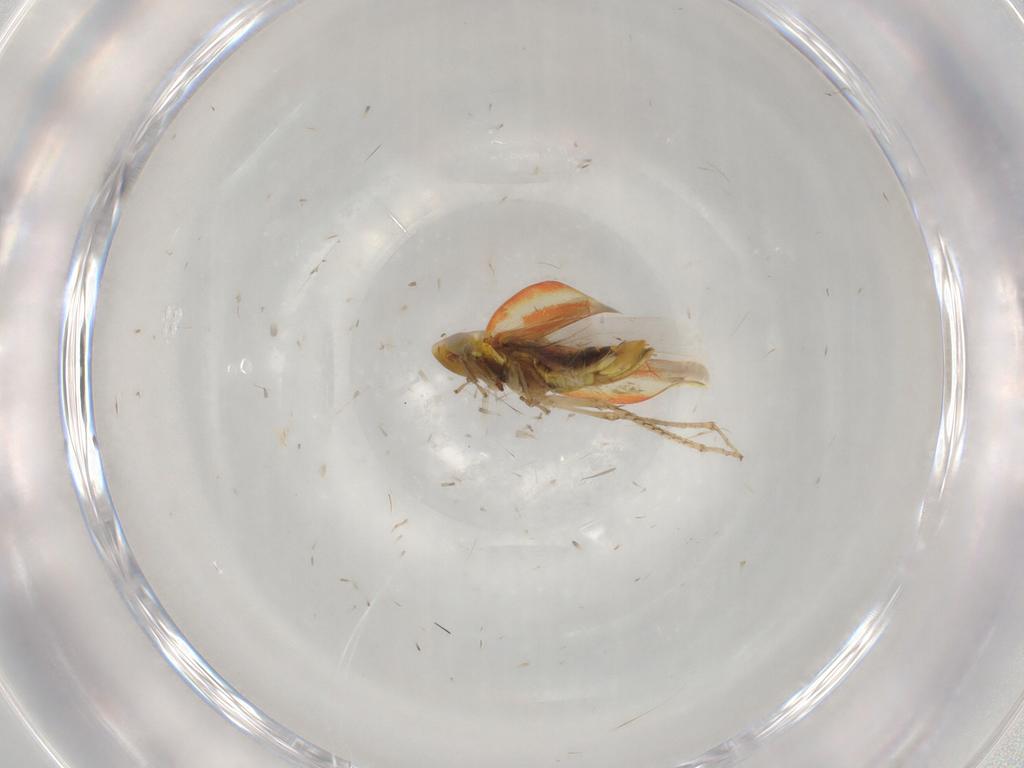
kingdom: Animalia
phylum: Arthropoda
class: Insecta
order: Hemiptera
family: Cicadellidae
